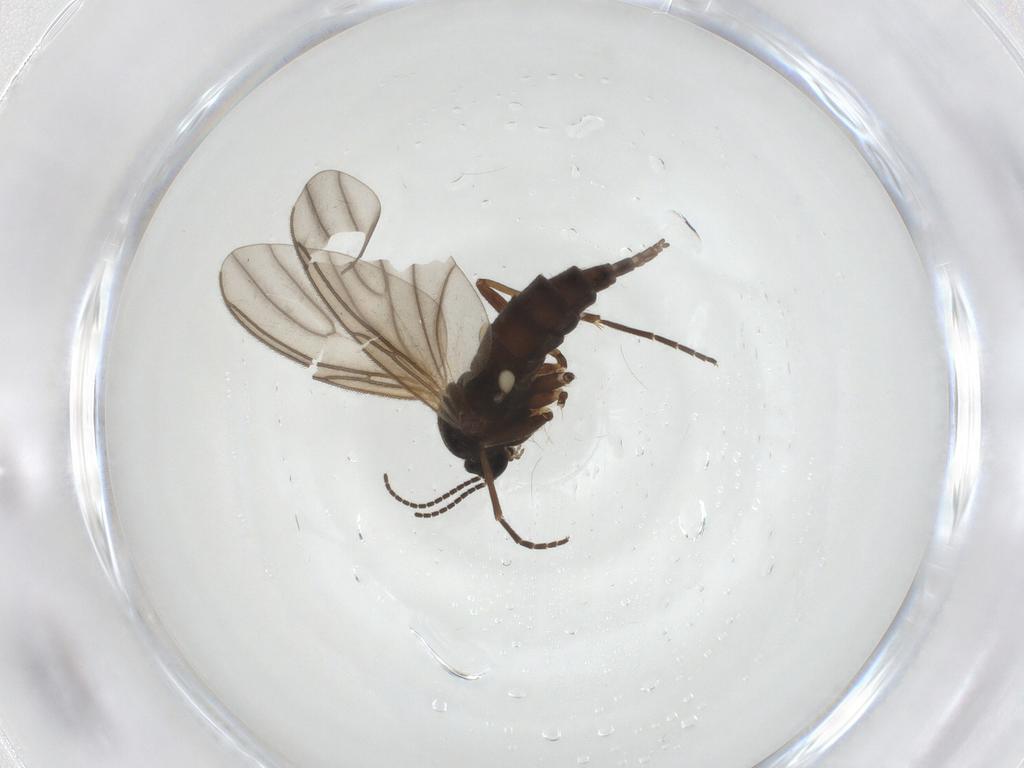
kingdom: Animalia
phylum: Arthropoda
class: Insecta
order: Diptera
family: Sciaridae
